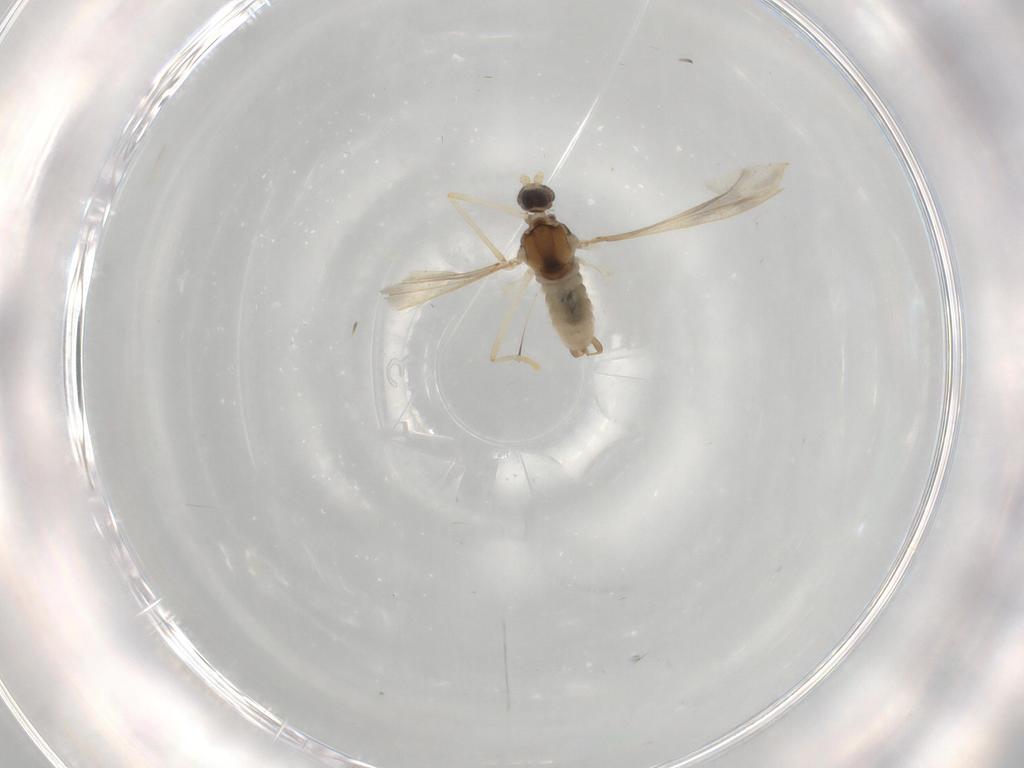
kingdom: Animalia
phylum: Arthropoda
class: Insecta
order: Diptera
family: Cecidomyiidae
